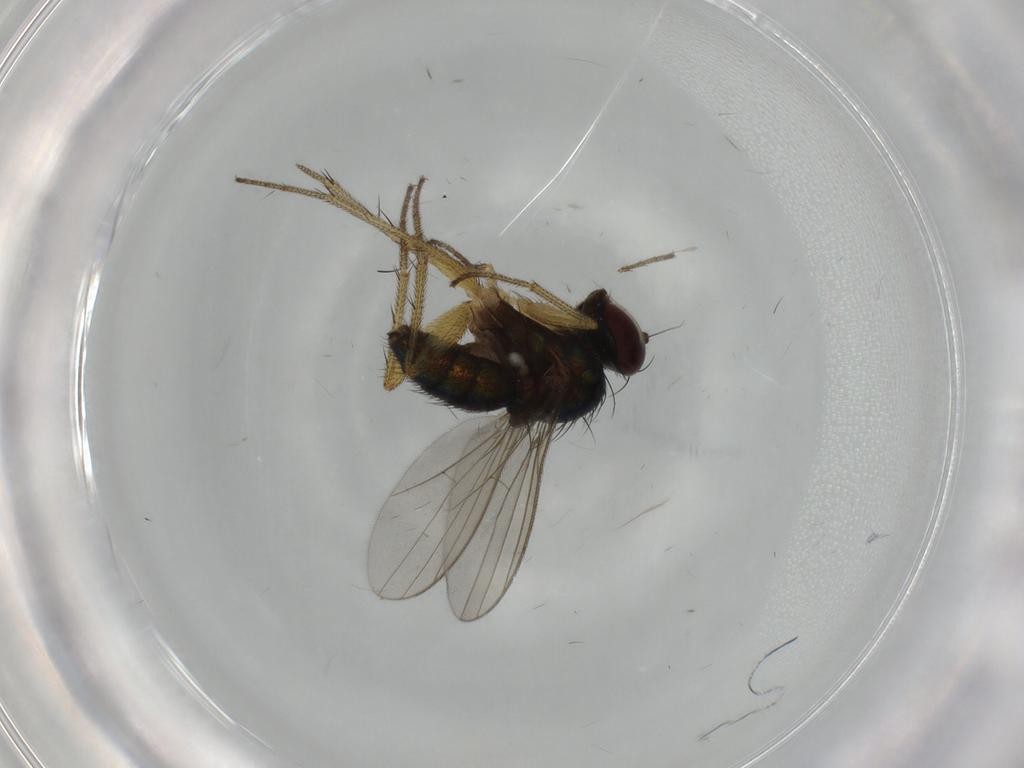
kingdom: Animalia
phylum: Arthropoda
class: Insecta
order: Diptera
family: Dolichopodidae
